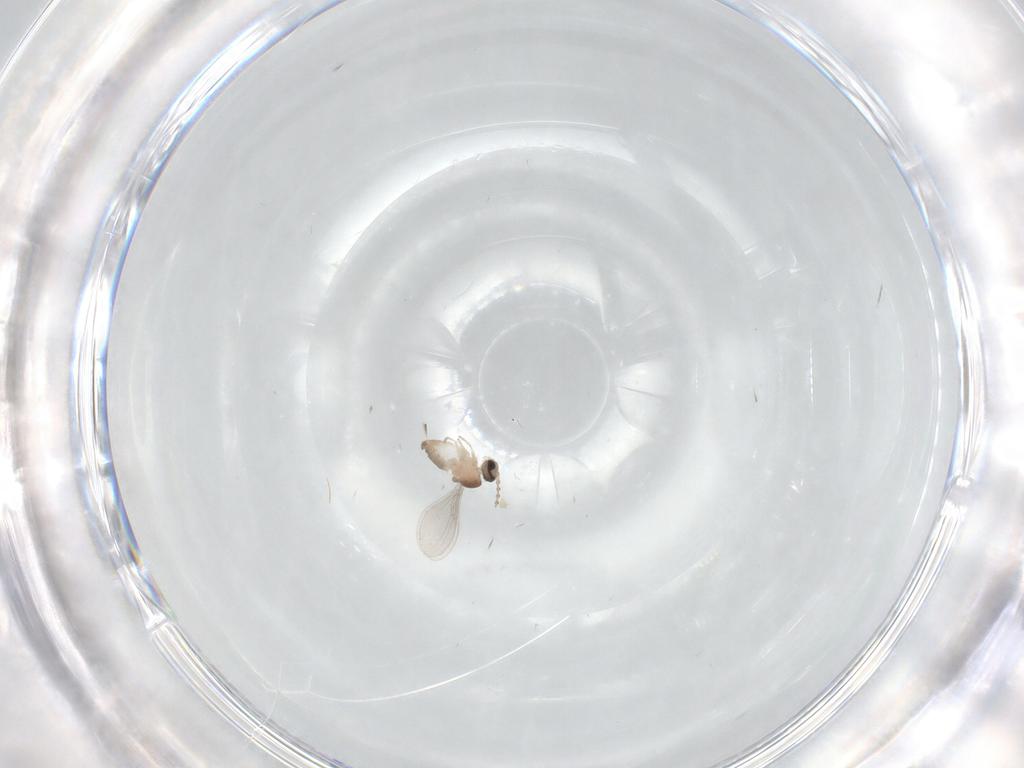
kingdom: Animalia
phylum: Arthropoda
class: Insecta
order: Diptera
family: Cecidomyiidae
